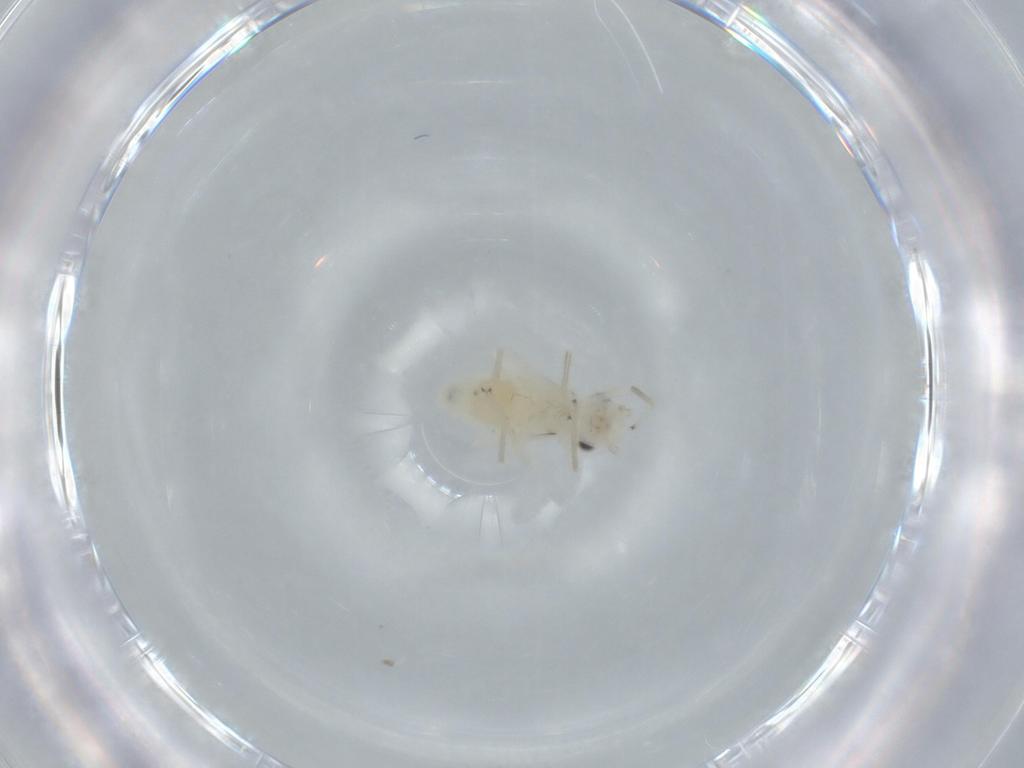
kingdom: Animalia
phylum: Arthropoda
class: Insecta
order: Psocodea
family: Caeciliusidae
